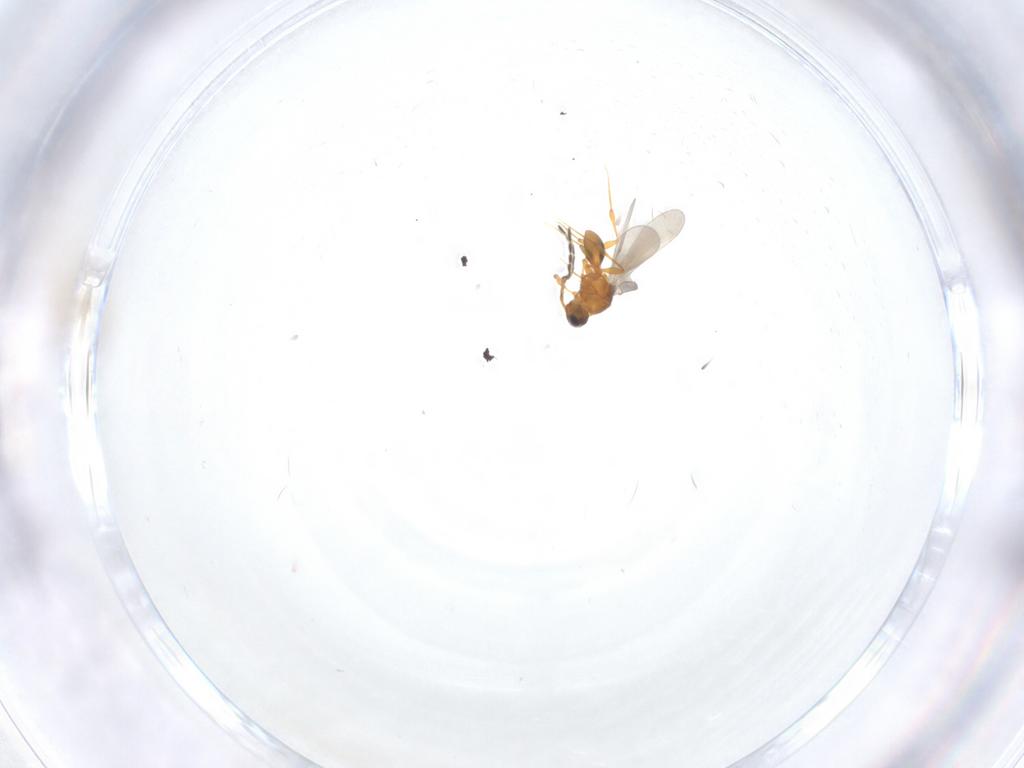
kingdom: Animalia
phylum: Arthropoda
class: Insecta
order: Hymenoptera
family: Platygastridae
